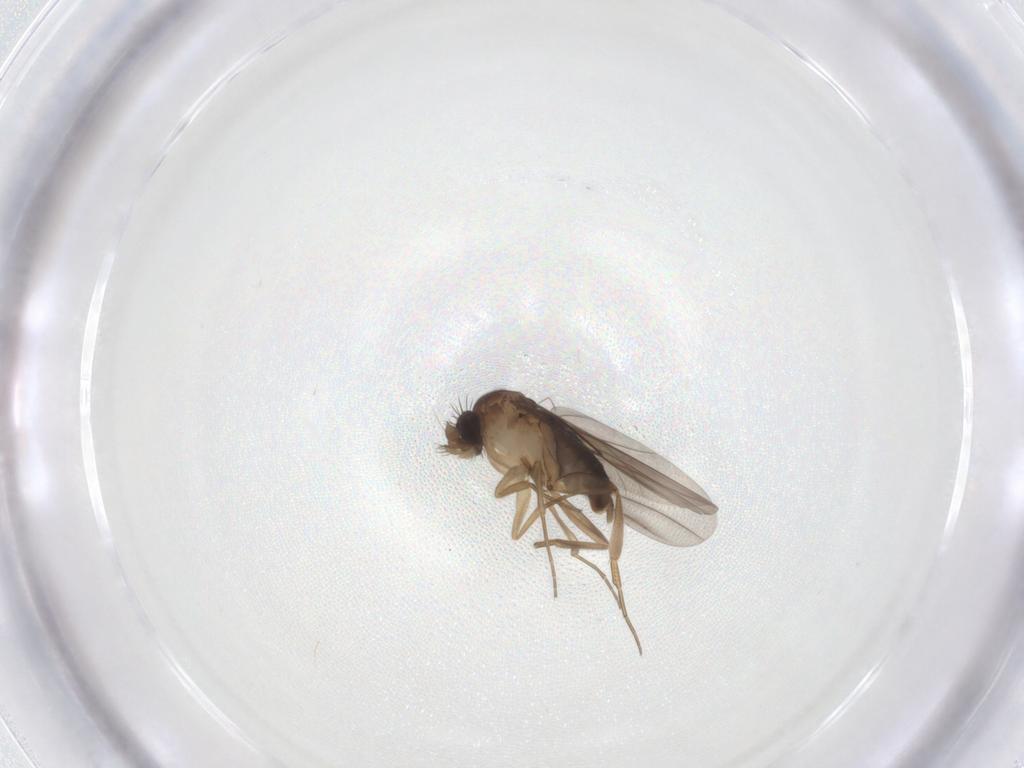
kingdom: Animalia
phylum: Arthropoda
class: Insecta
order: Diptera
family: Phoridae
